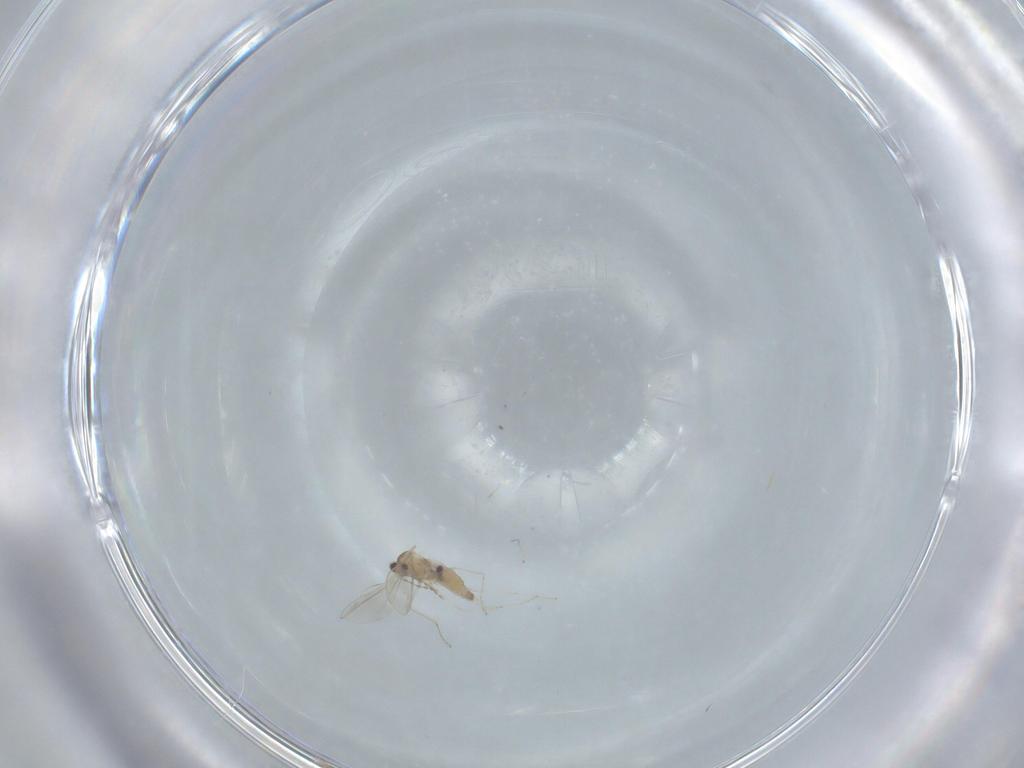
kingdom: Animalia
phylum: Arthropoda
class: Insecta
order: Diptera
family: Cecidomyiidae
